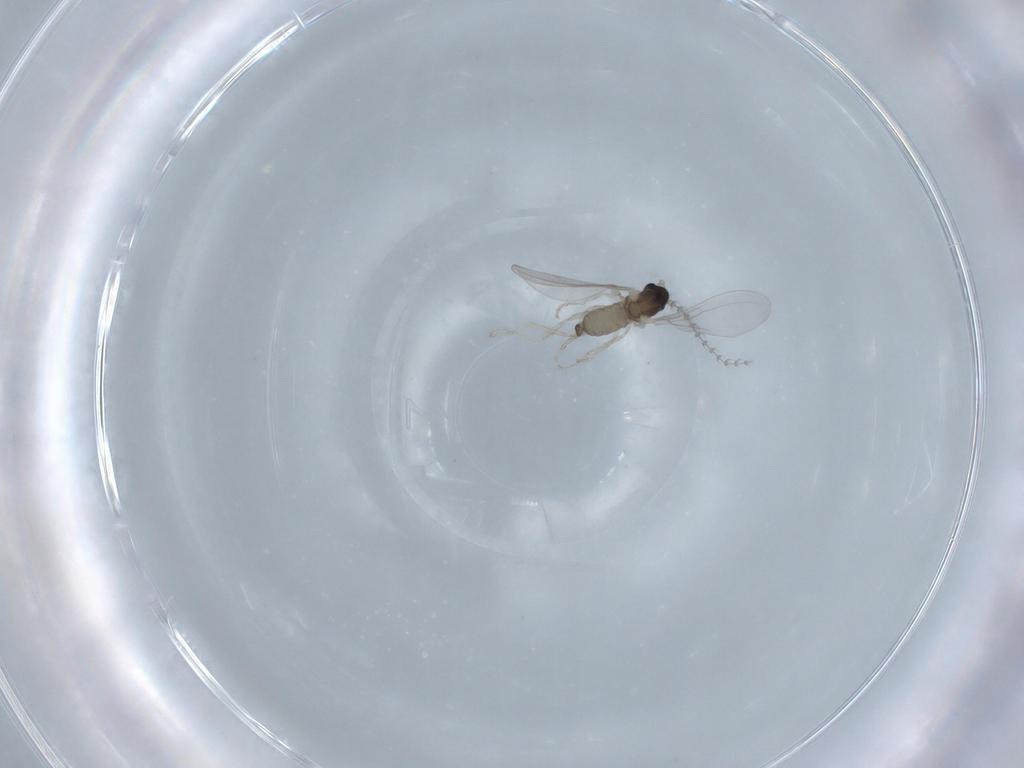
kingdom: Animalia
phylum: Arthropoda
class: Insecta
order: Diptera
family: Cecidomyiidae
